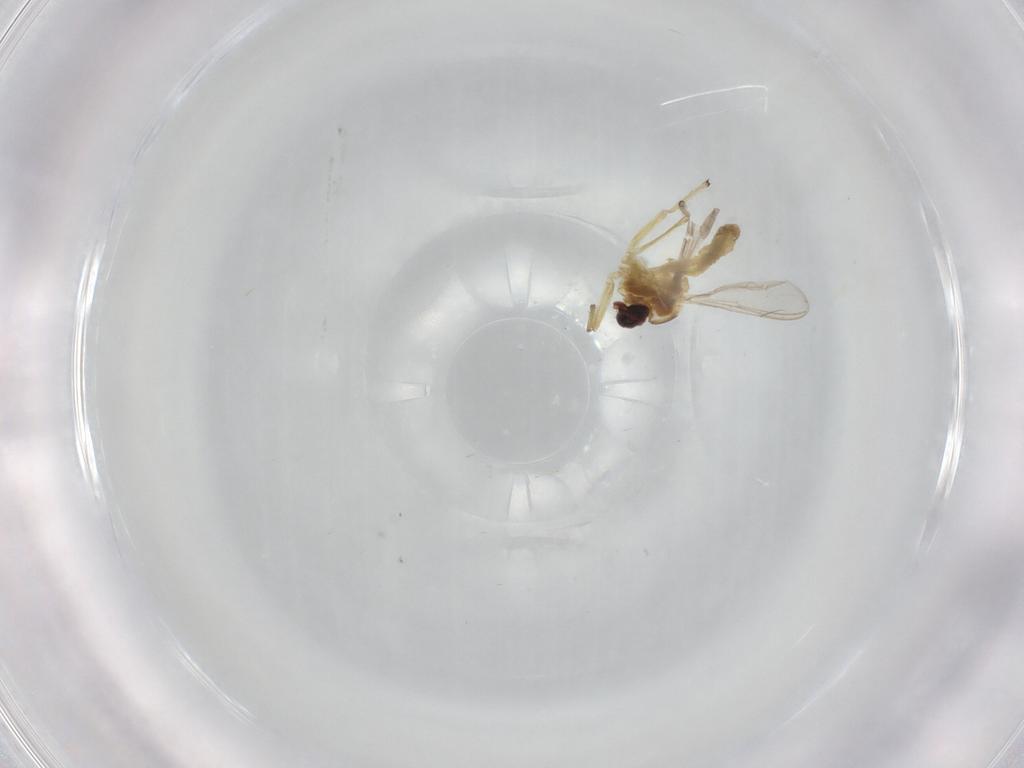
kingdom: Animalia
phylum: Arthropoda
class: Insecta
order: Diptera
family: Chironomidae
